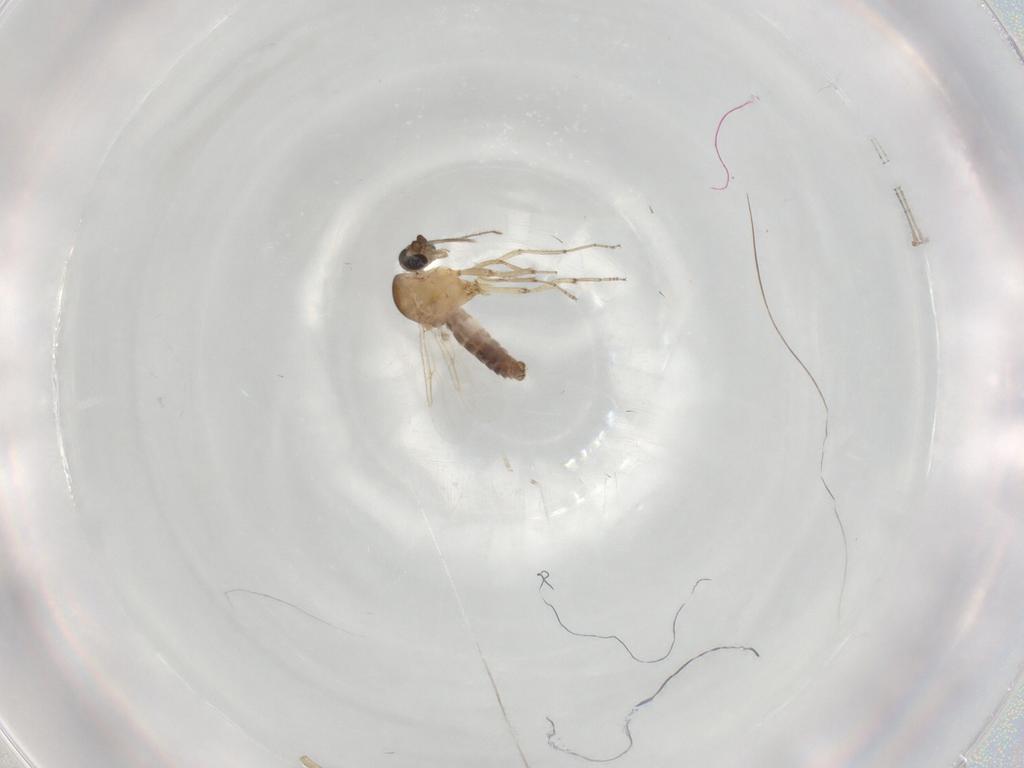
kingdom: Animalia
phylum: Arthropoda
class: Insecta
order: Diptera
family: Ceratopogonidae
